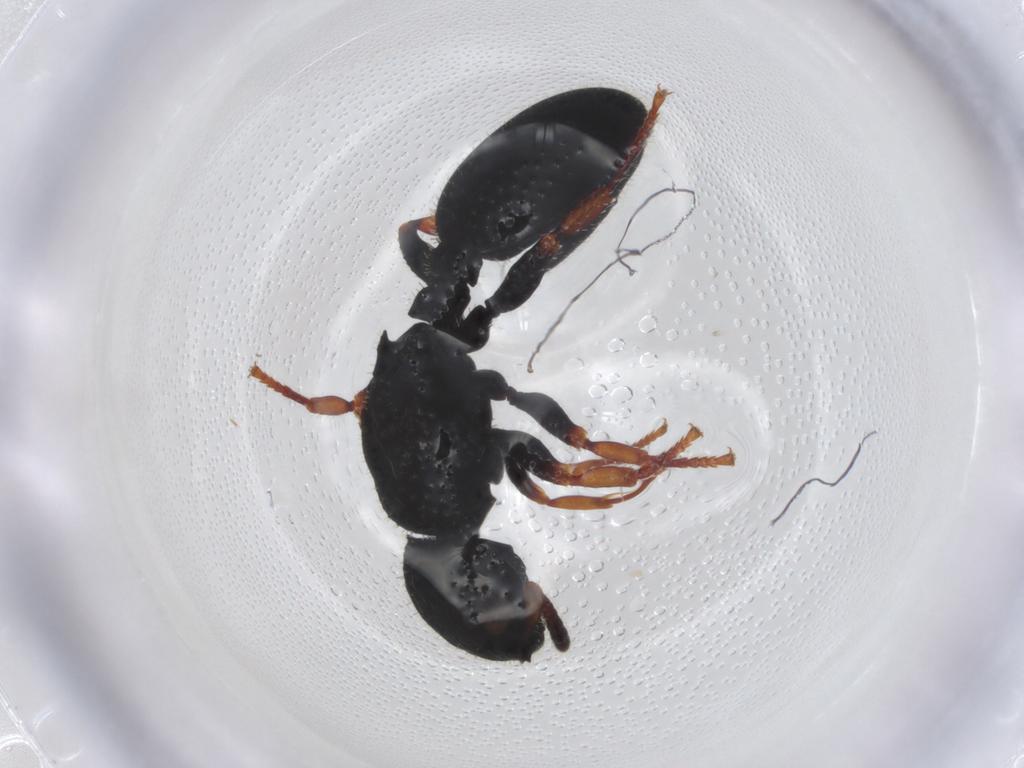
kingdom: Animalia
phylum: Arthropoda
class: Insecta
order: Hymenoptera
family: Formicidae
